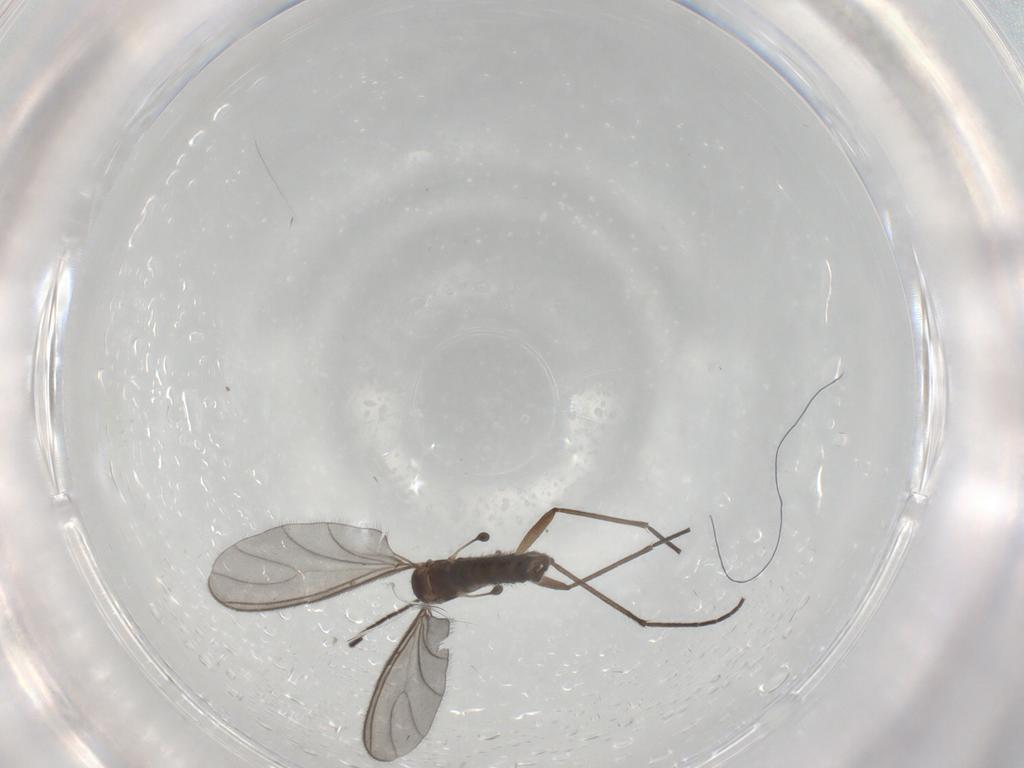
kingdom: Animalia
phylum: Arthropoda
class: Insecta
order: Diptera
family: Sciaridae
